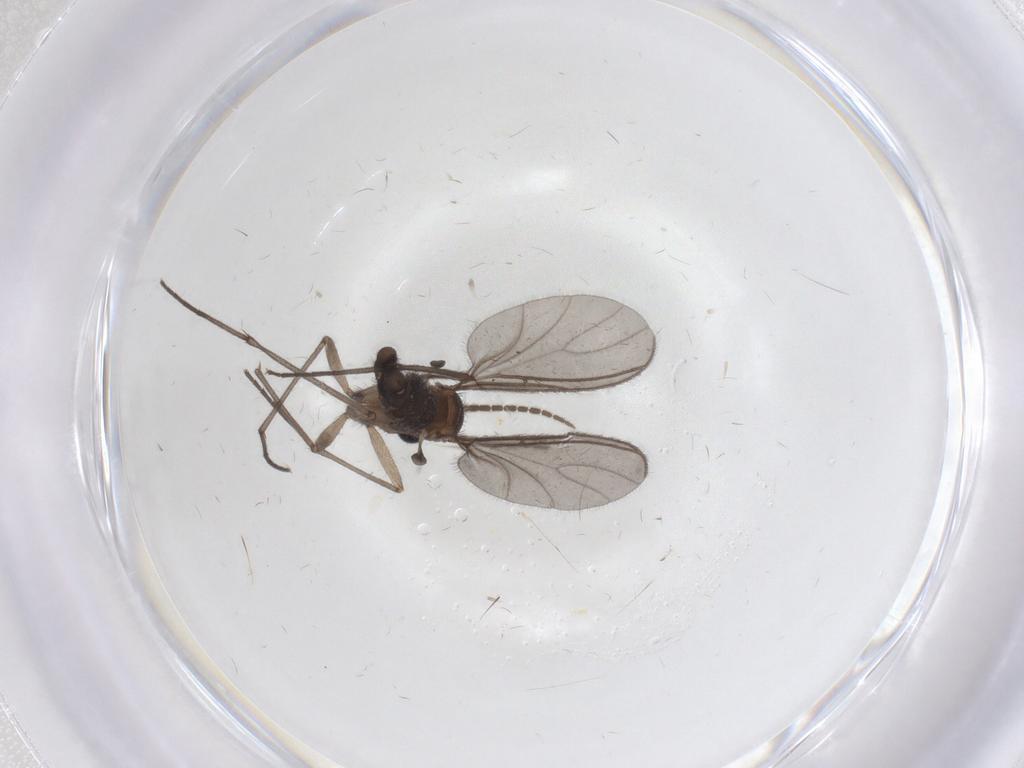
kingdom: Animalia
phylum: Arthropoda
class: Insecta
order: Diptera
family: Sciaridae
